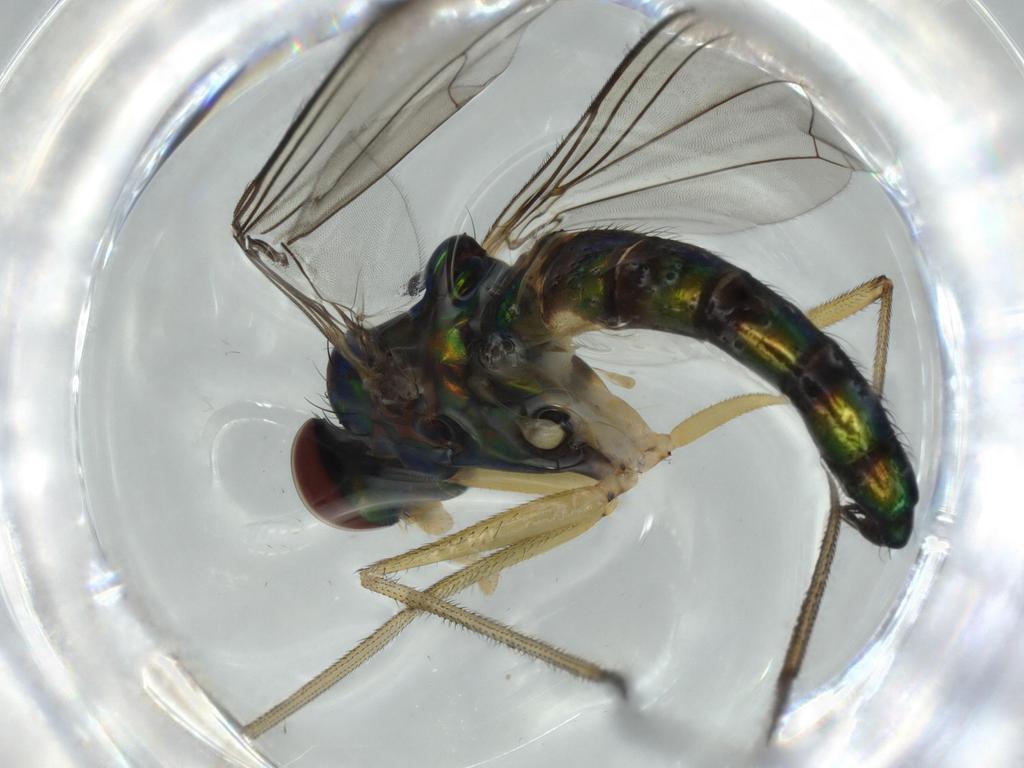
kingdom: Animalia
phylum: Arthropoda
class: Insecta
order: Diptera
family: Dolichopodidae
